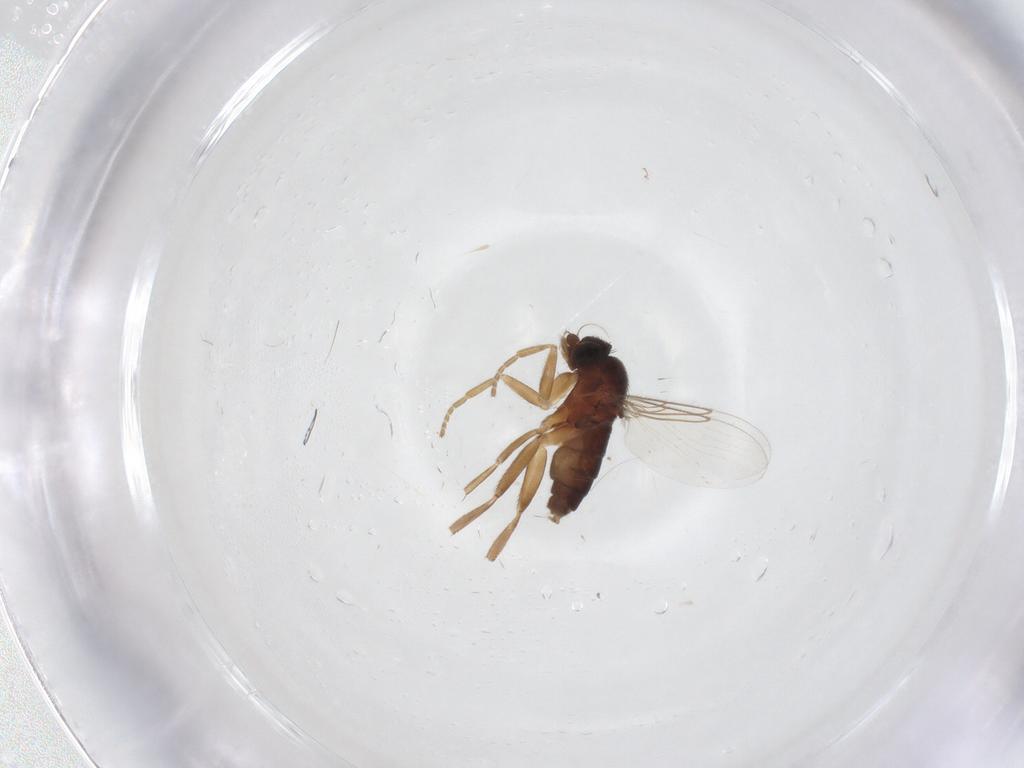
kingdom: Animalia
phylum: Arthropoda
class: Insecta
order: Diptera
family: Phoridae
